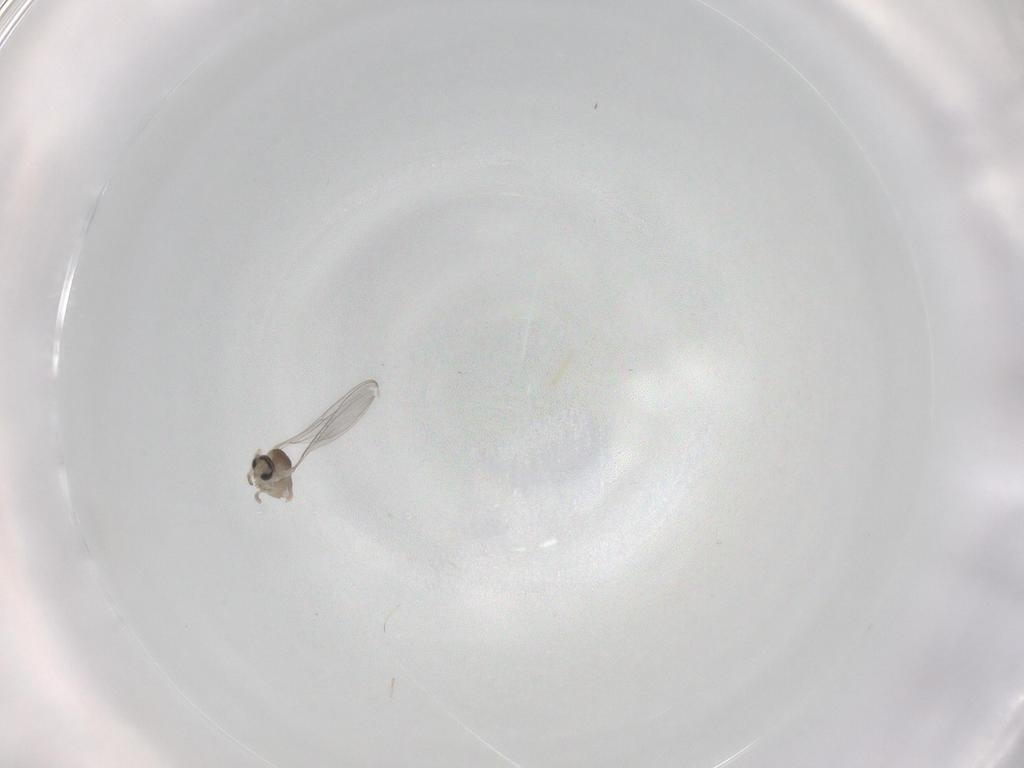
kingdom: Animalia
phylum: Arthropoda
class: Insecta
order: Diptera
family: Cecidomyiidae
